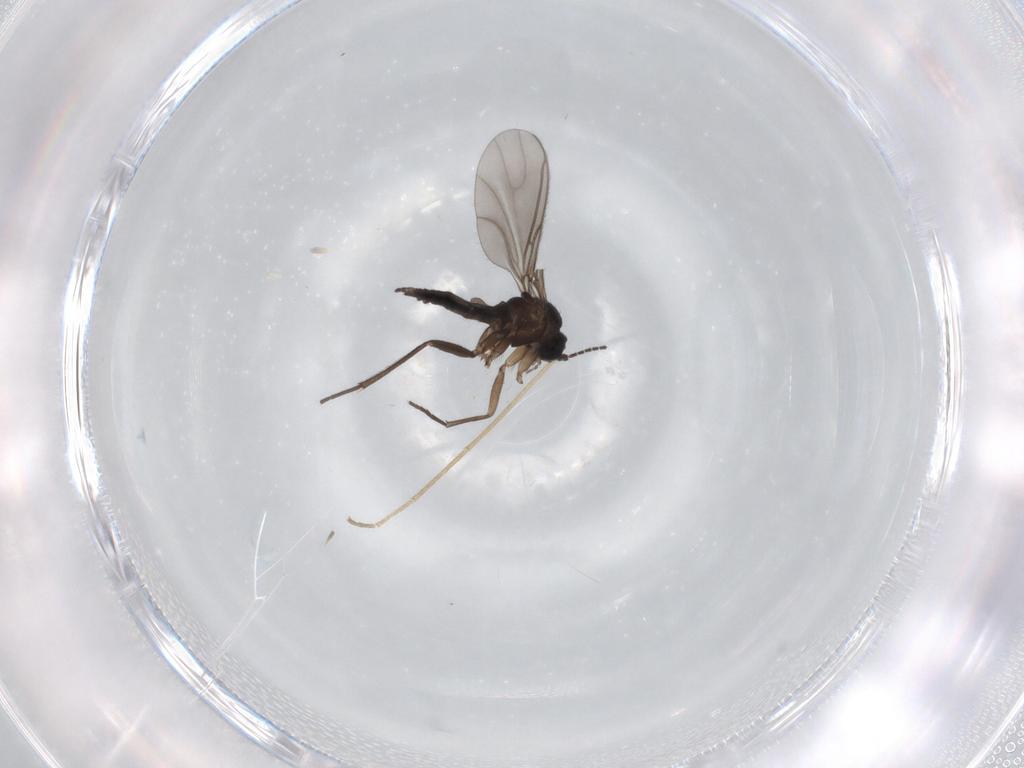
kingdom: Animalia
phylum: Arthropoda
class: Insecta
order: Diptera
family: Sciaridae
